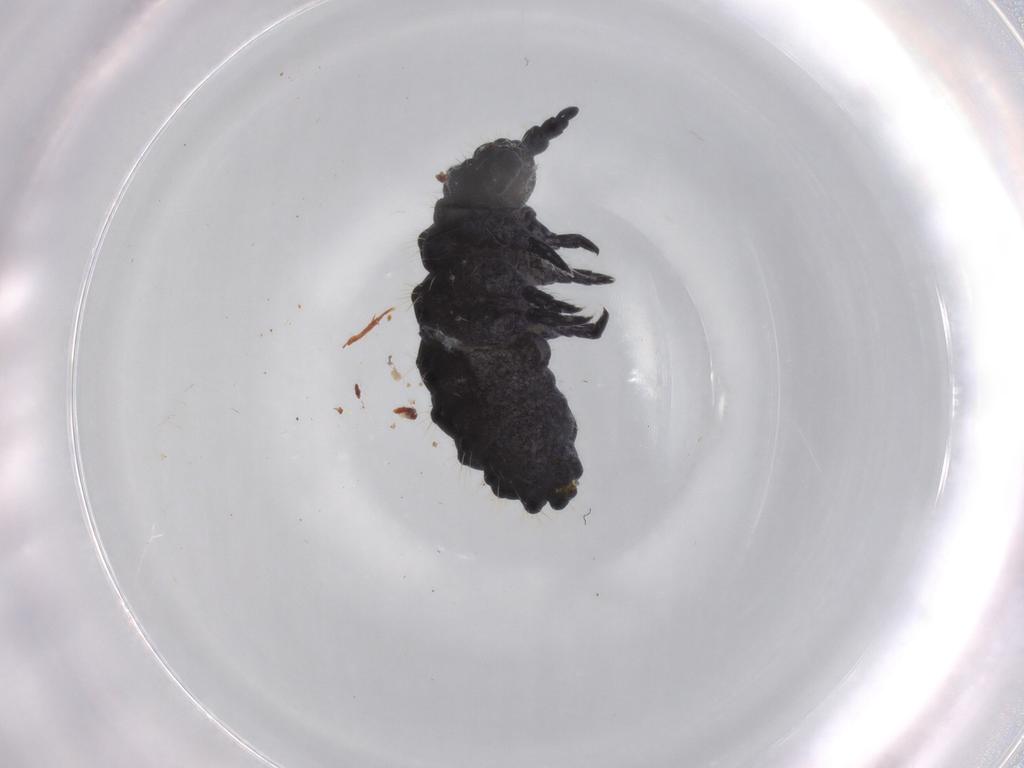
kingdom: Animalia
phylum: Arthropoda
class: Collembola
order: Poduromorpha
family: Neanuridae
